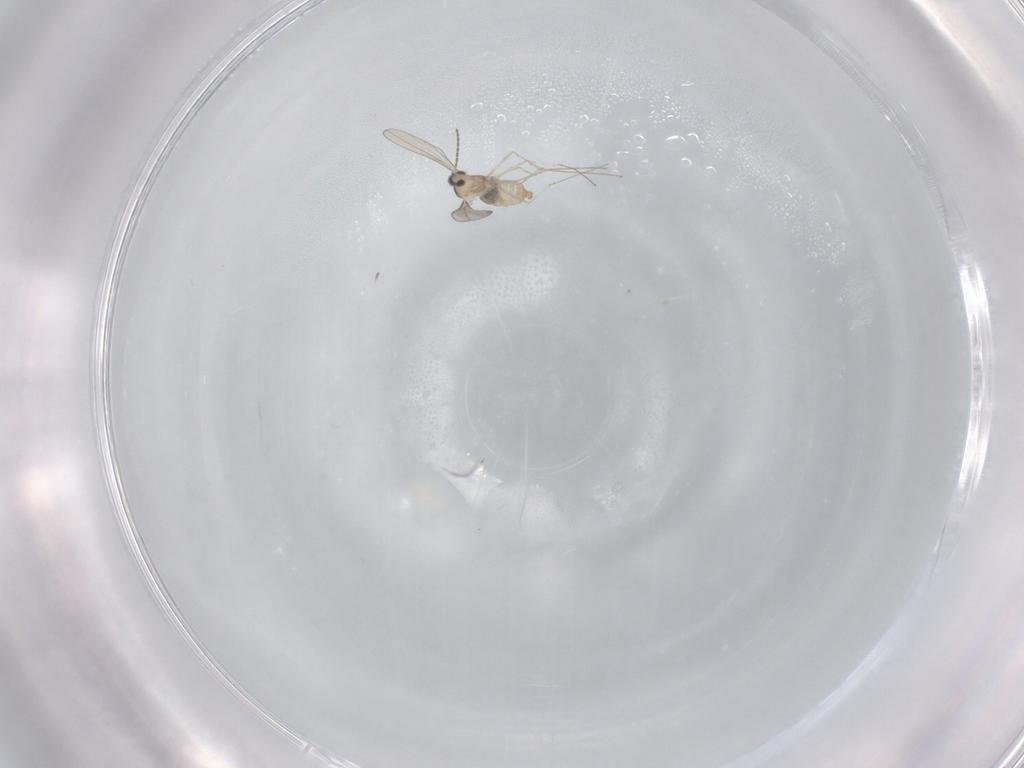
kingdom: Animalia
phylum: Arthropoda
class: Insecta
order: Diptera
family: Cecidomyiidae
